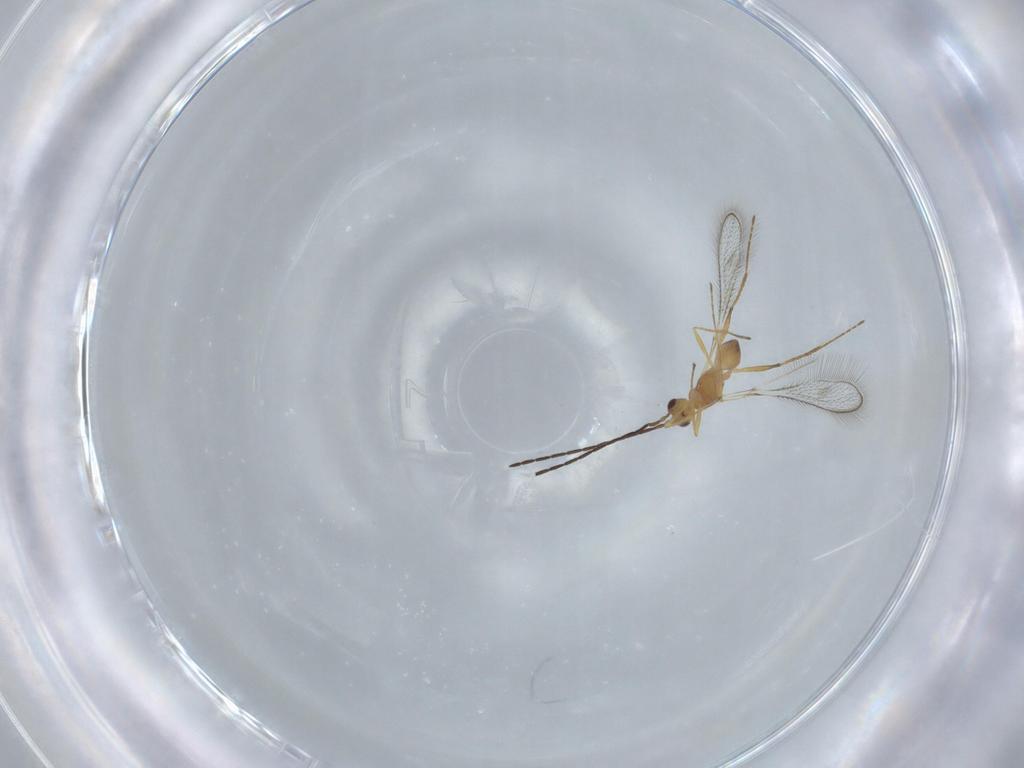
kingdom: Animalia
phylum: Arthropoda
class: Insecta
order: Hymenoptera
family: Mymaridae
